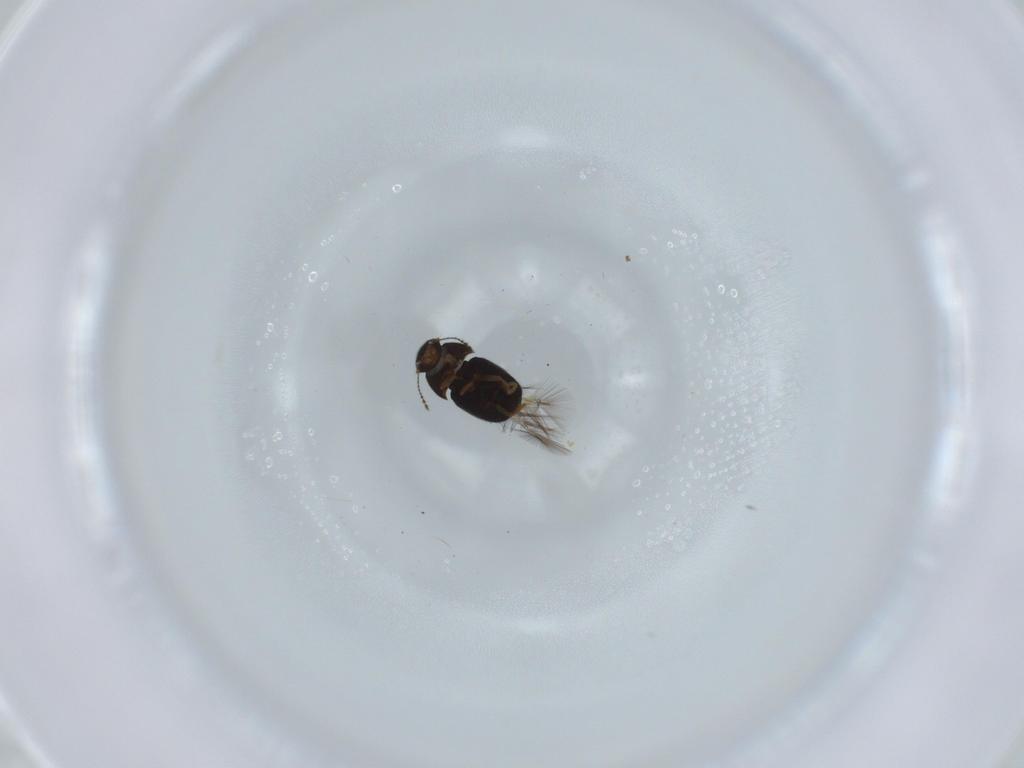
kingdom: Animalia
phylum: Arthropoda
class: Insecta
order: Coleoptera
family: Ptiliidae
